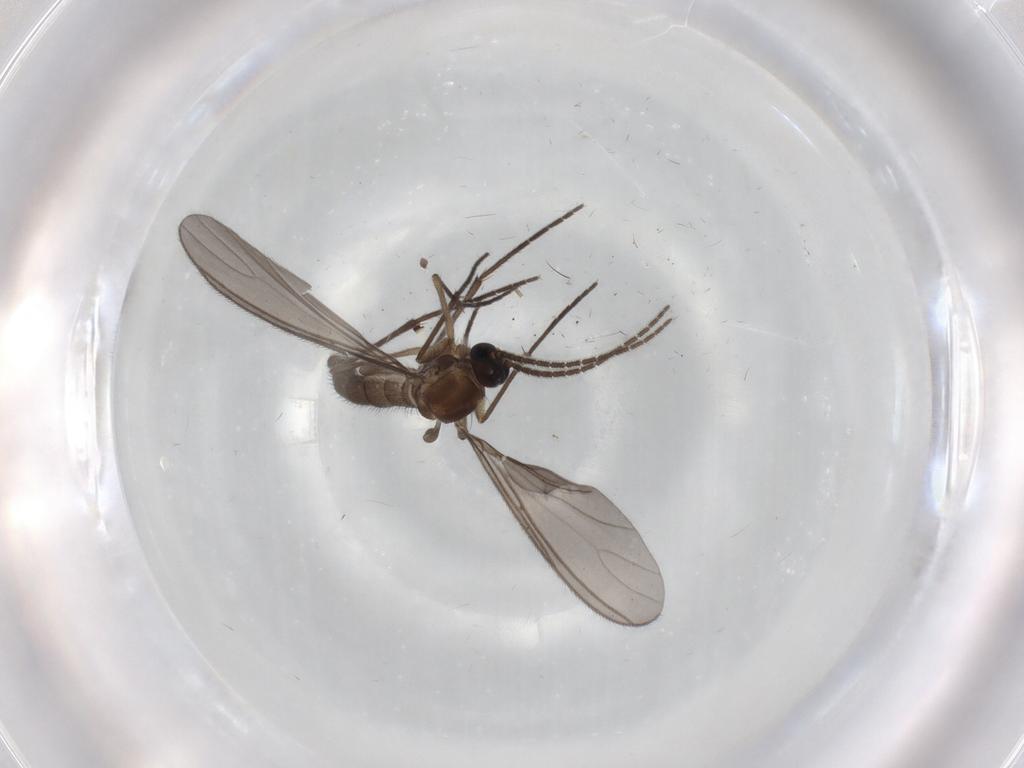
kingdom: Animalia
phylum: Arthropoda
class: Insecta
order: Diptera
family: Sciaridae
